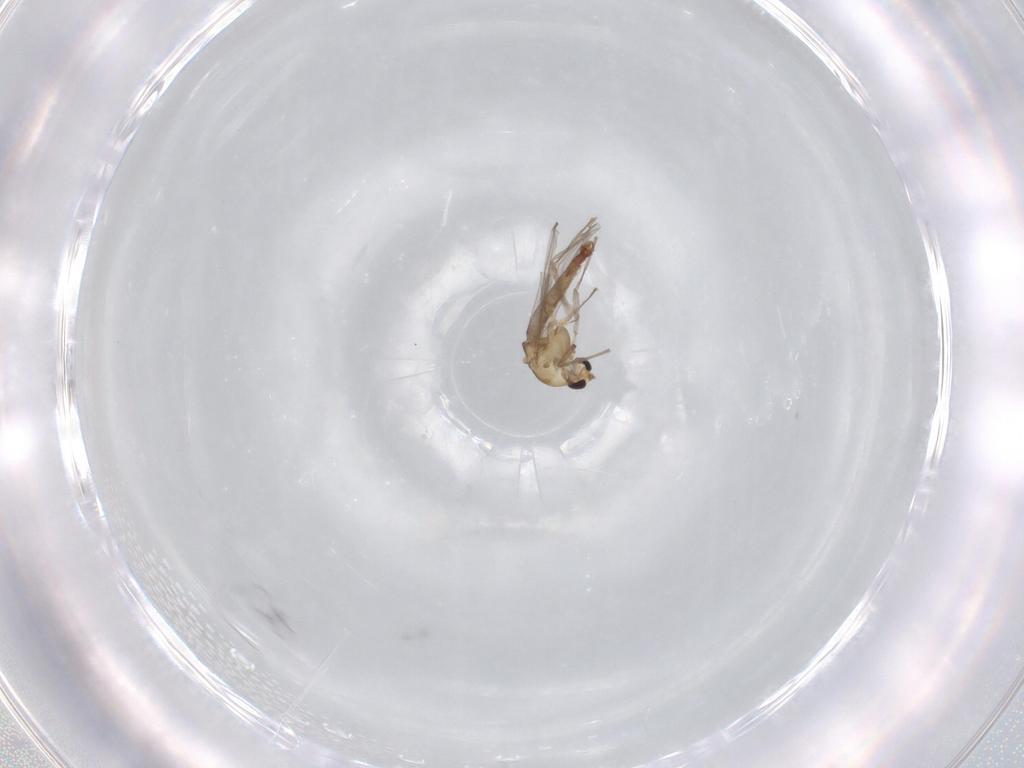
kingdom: Animalia
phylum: Arthropoda
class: Insecta
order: Diptera
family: Chironomidae
